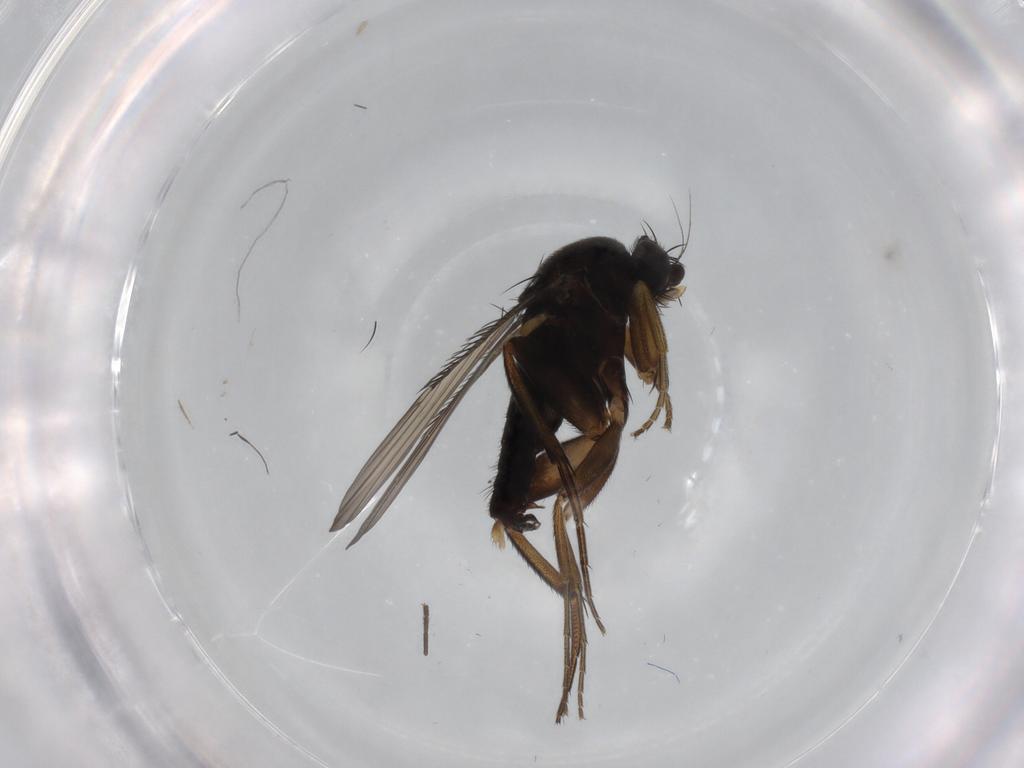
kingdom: Animalia
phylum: Arthropoda
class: Insecta
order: Diptera
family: Phoridae
